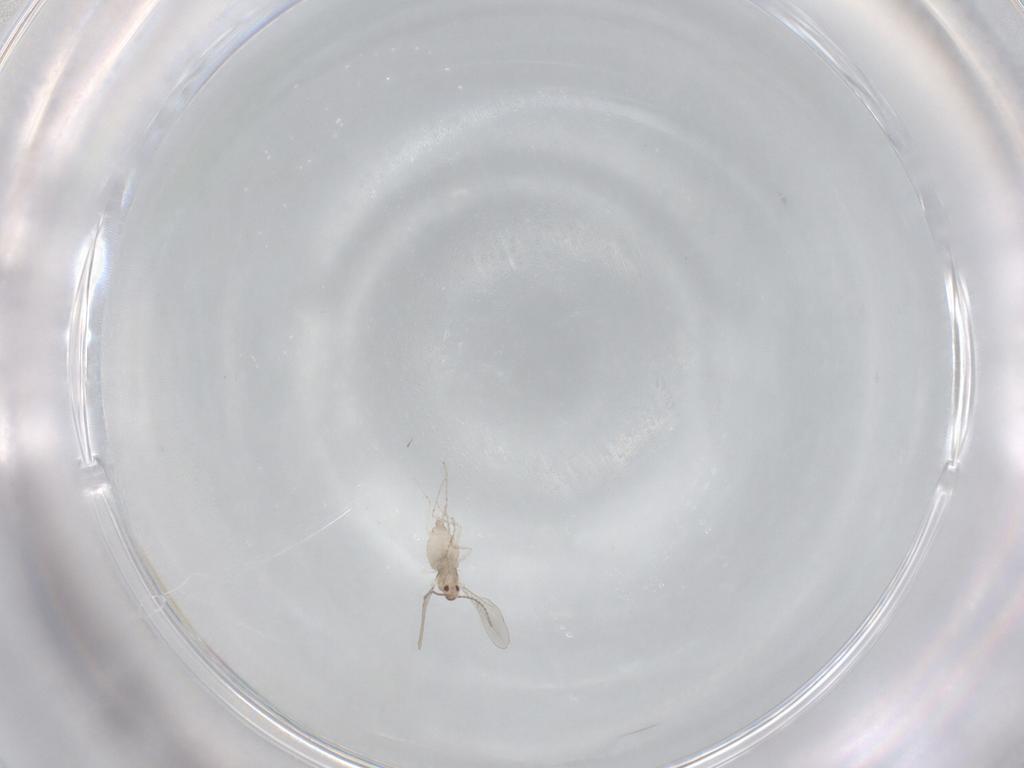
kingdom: Animalia
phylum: Arthropoda
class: Insecta
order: Diptera
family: Cecidomyiidae
